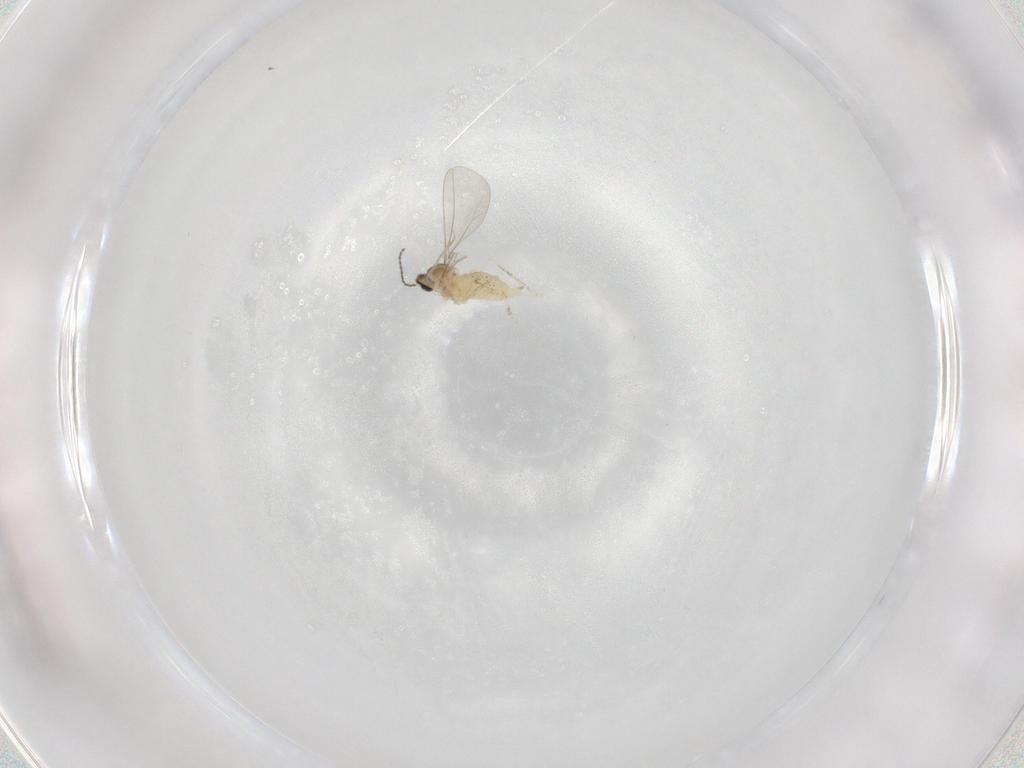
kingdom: Animalia
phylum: Arthropoda
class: Insecta
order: Diptera
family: Cecidomyiidae
